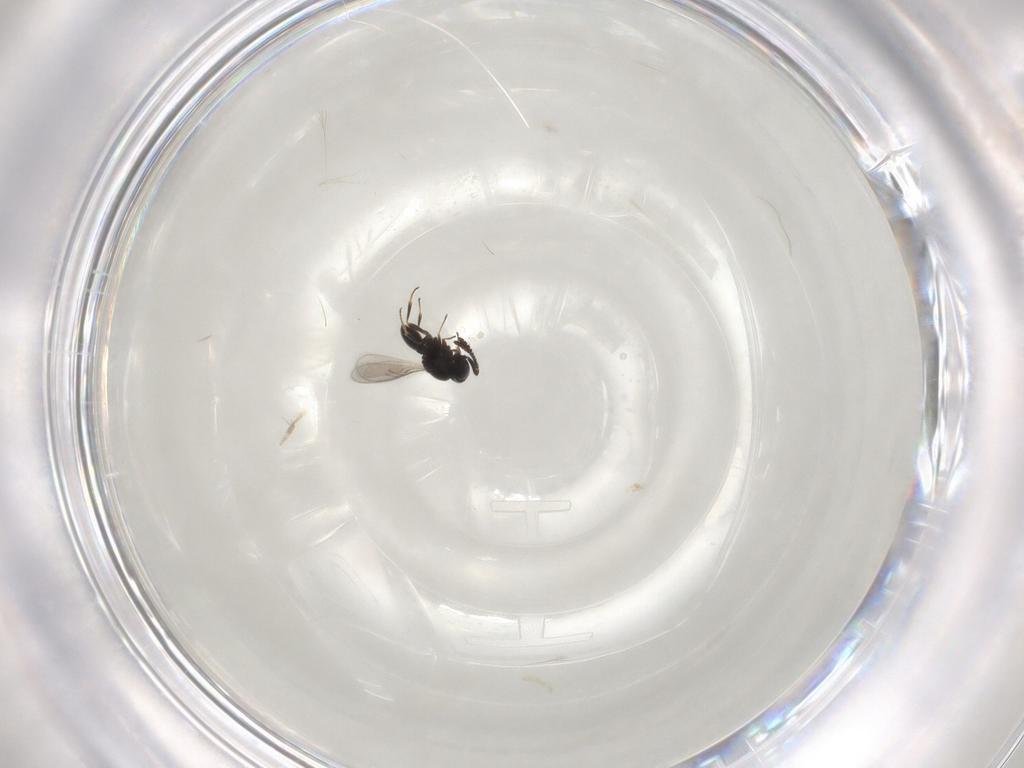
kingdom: Animalia
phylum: Arthropoda
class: Insecta
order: Hymenoptera
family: Scelionidae
